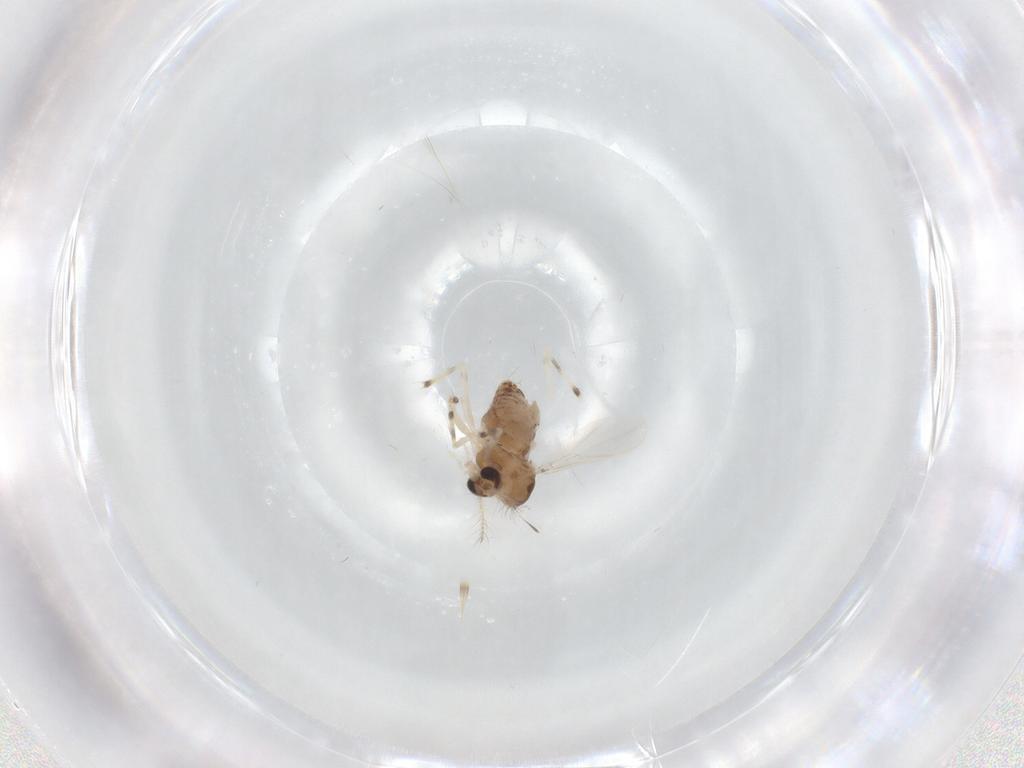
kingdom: Animalia
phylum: Arthropoda
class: Insecta
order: Diptera
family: Chironomidae
